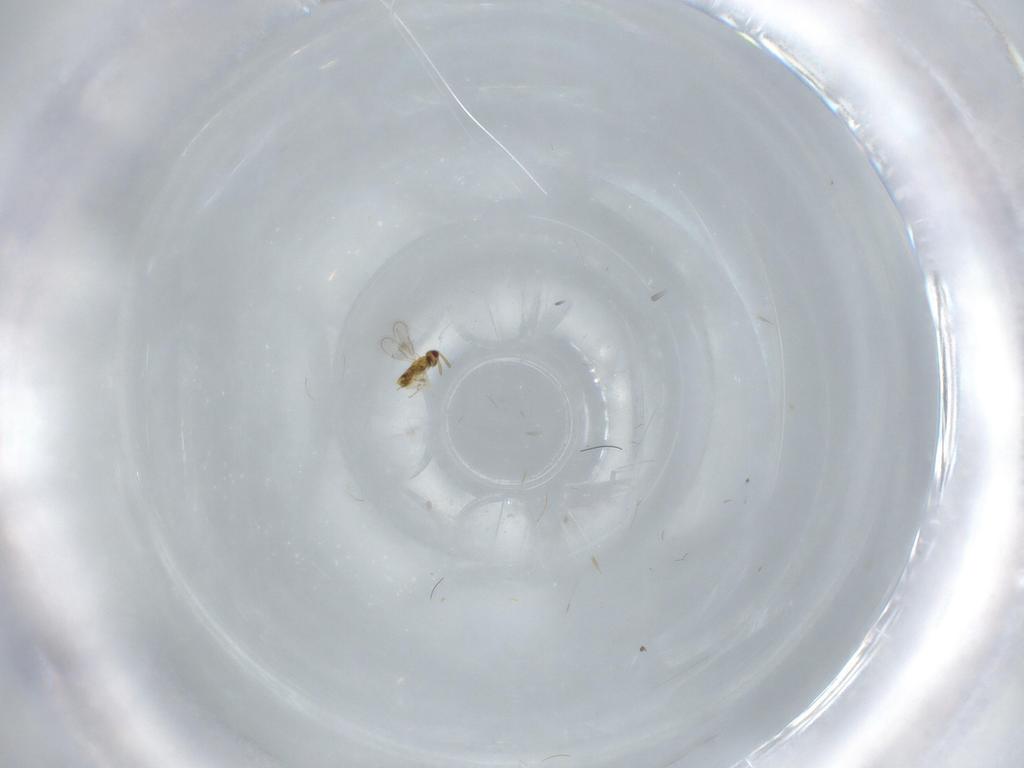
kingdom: Animalia
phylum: Arthropoda
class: Insecta
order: Hymenoptera
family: Aphelinidae
